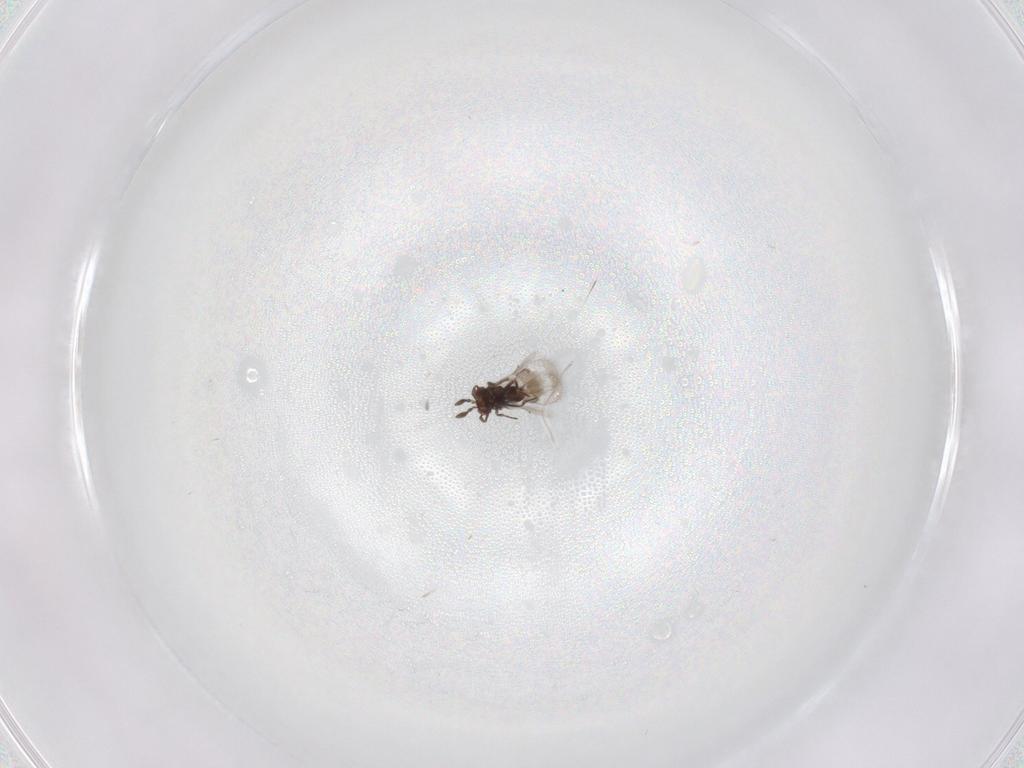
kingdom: Animalia
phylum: Arthropoda
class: Insecta
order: Hymenoptera
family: Eulophidae
